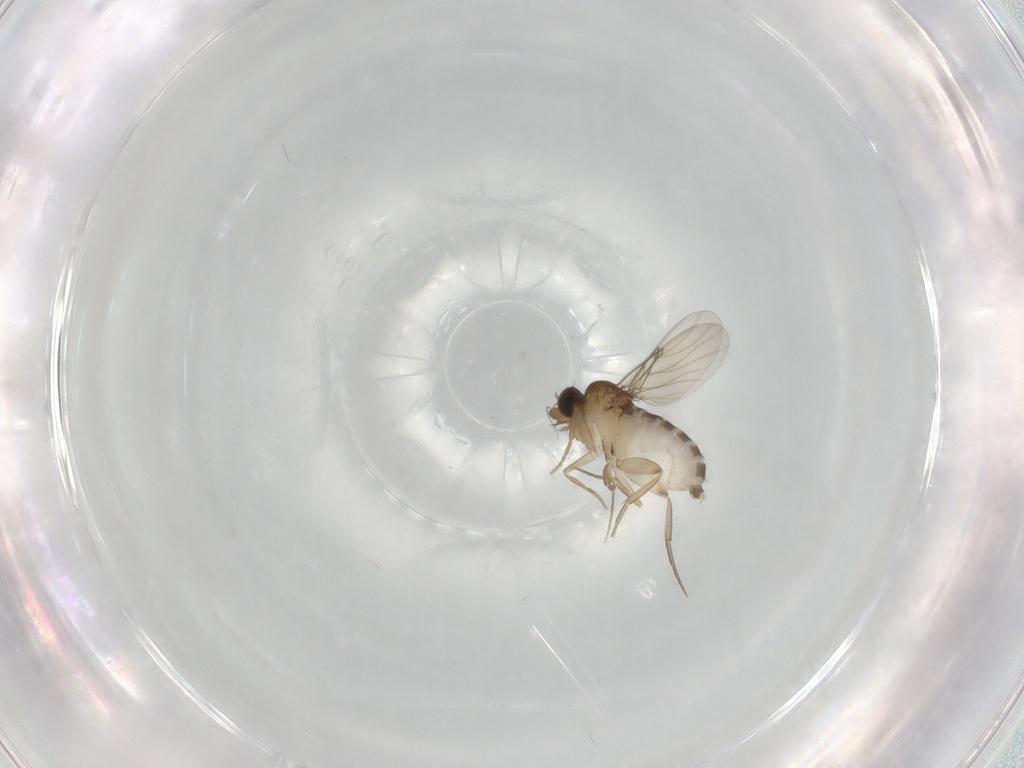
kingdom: Animalia
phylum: Arthropoda
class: Insecta
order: Diptera
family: Phoridae
